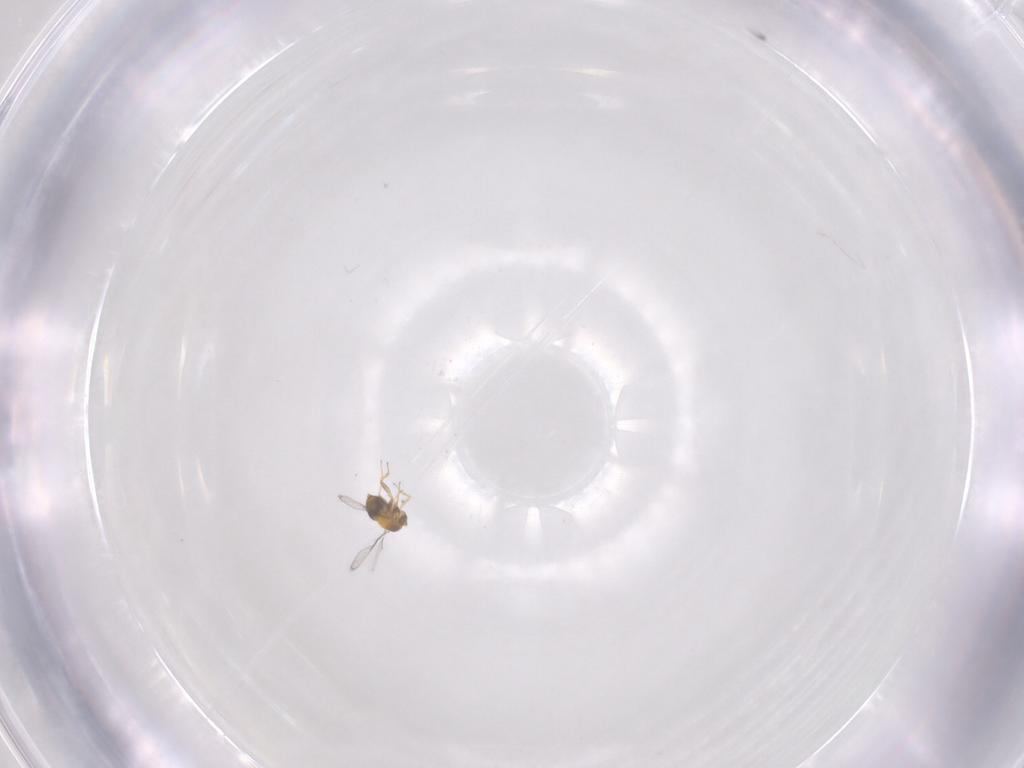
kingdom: Animalia
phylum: Arthropoda
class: Insecta
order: Hymenoptera
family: Trichogrammatidae
